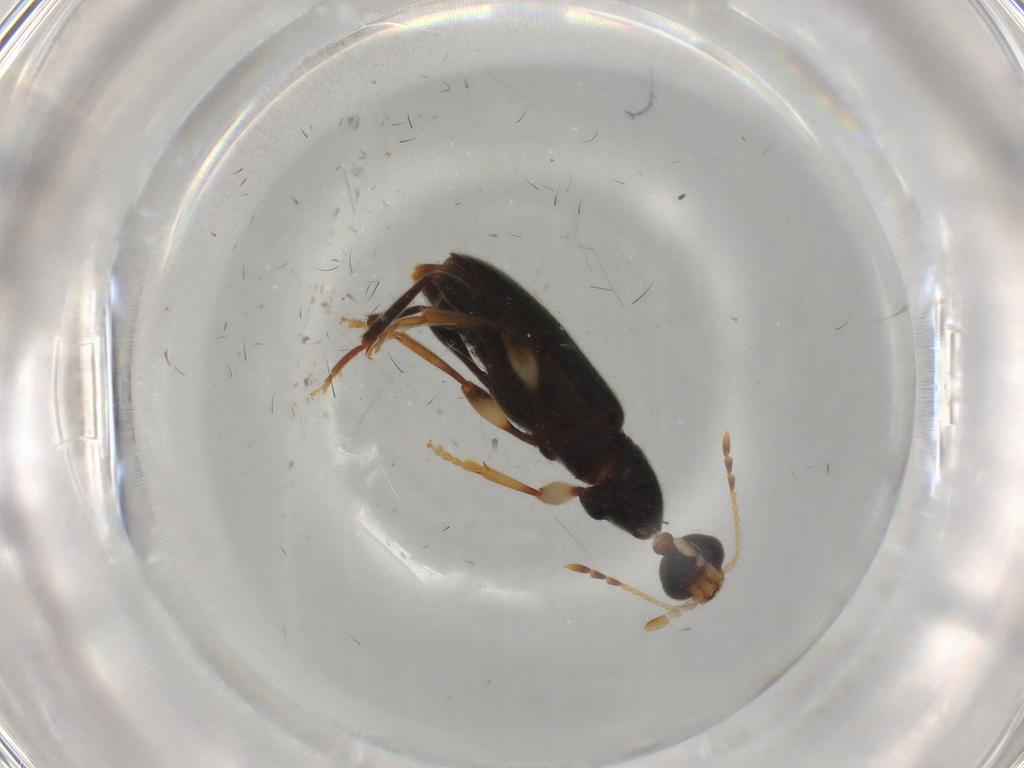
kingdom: Animalia
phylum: Arthropoda
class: Insecta
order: Coleoptera
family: Anthicidae
